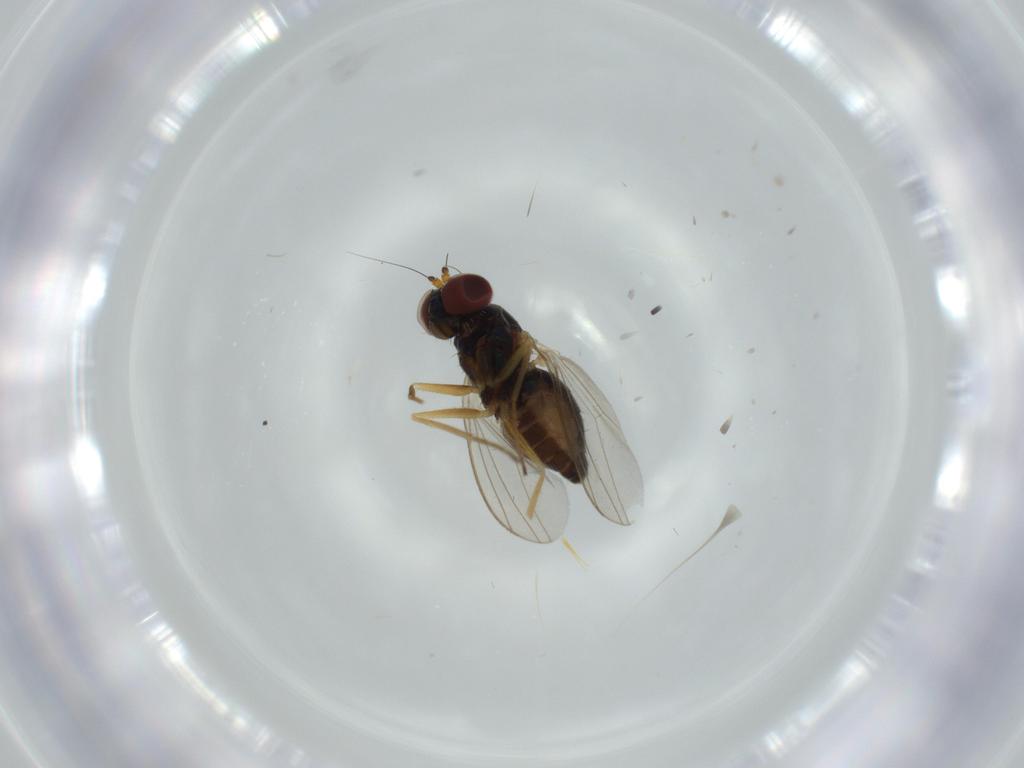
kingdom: Animalia
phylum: Arthropoda
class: Insecta
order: Diptera
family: Dolichopodidae
